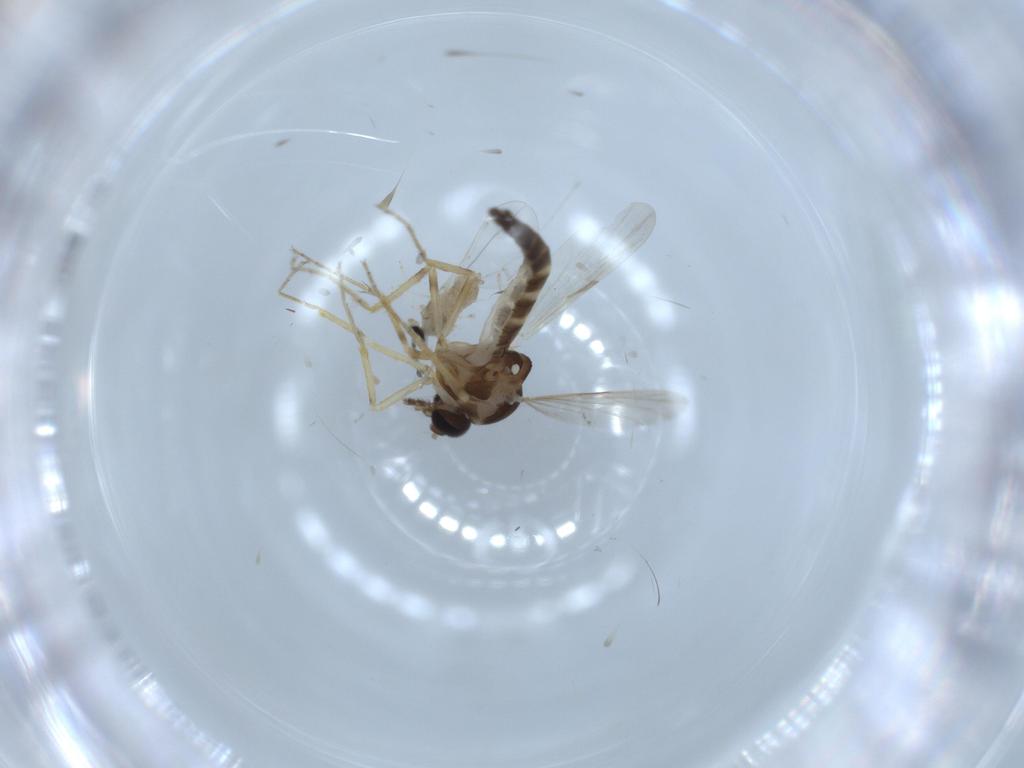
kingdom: Animalia
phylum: Arthropoda
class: Insecta
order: Diptera
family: Ceratopogonidae
